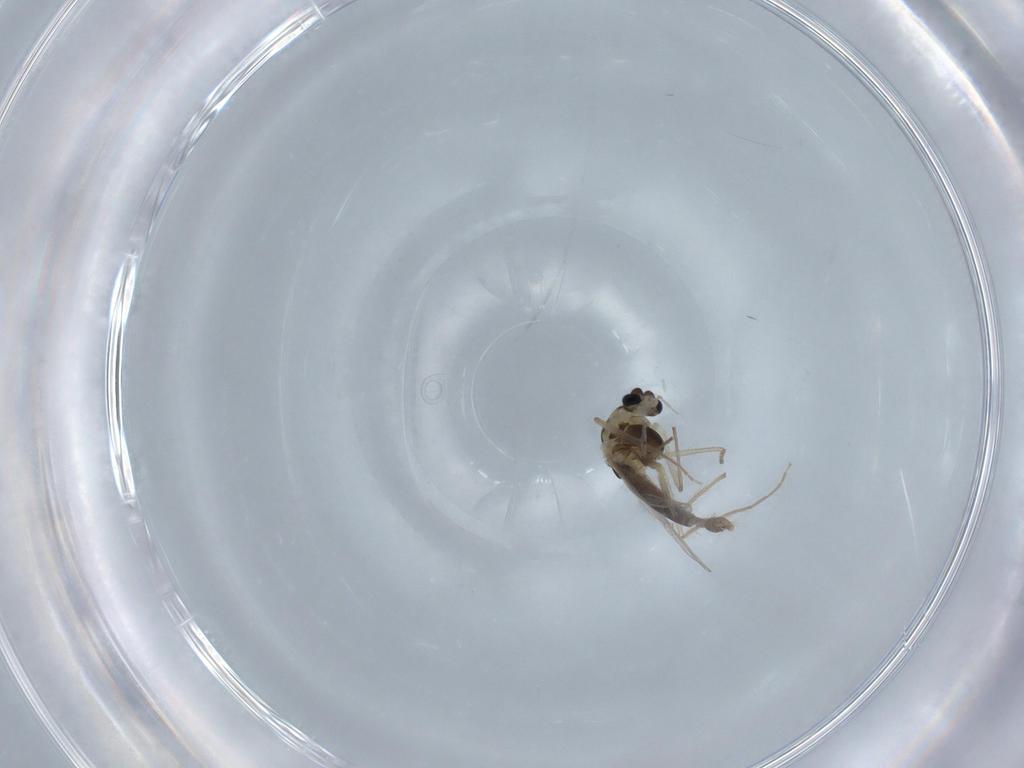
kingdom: Animalia
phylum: Arthropoda
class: Insecta
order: Diptera
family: Chironomidae
